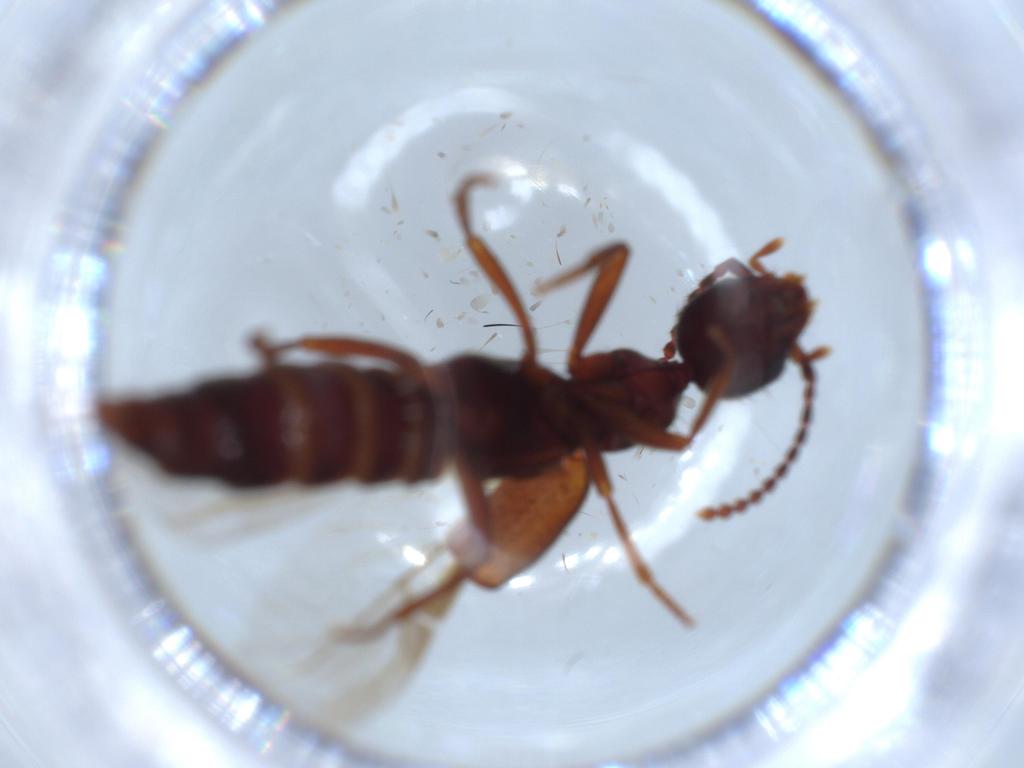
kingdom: Animalia
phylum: Arthropoda
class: Insecta
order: Coleoptera
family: Staphylinidae
